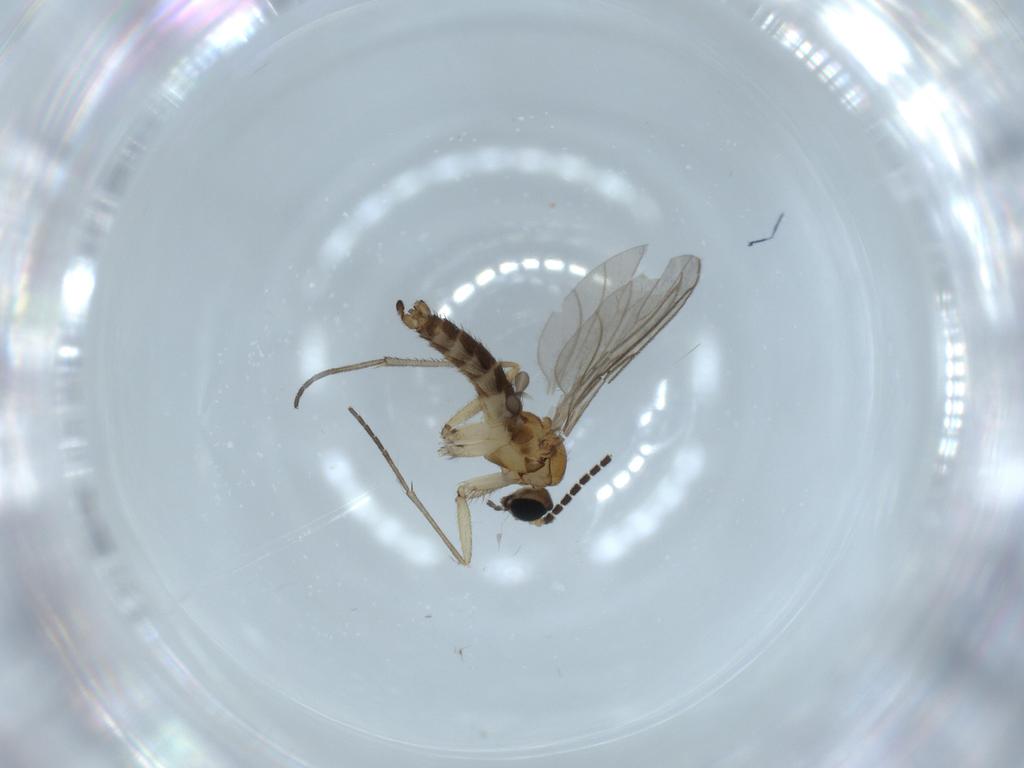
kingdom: Animalia
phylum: Arthropoda
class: Insecta
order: Diptera
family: Sciaridae
